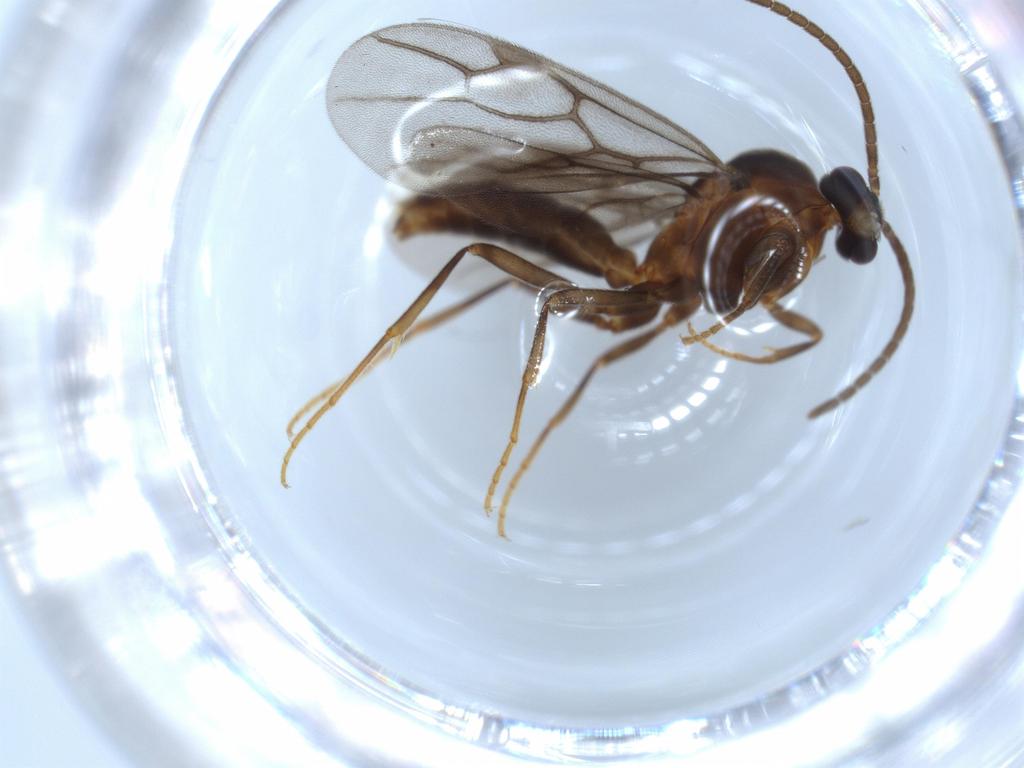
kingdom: Animalia
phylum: Arthropoda
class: Insecta
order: Hymenoptera
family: Formicidae
